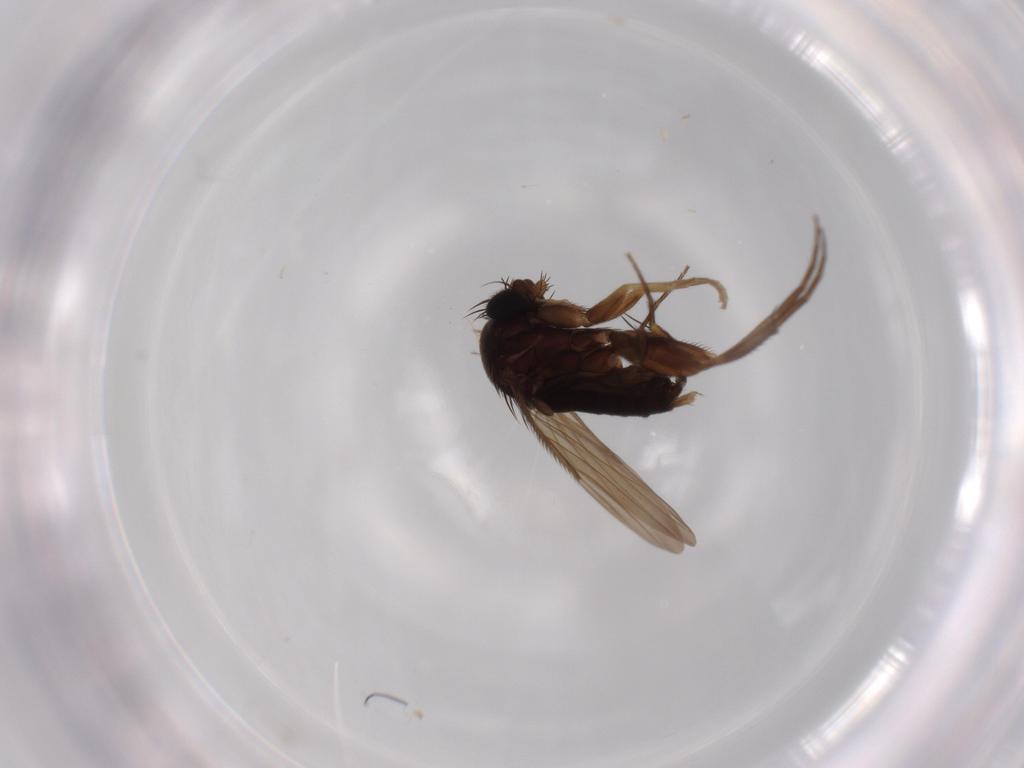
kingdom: Animalia
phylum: Arthropoda
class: Insecta
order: Diptera
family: Phoridae
